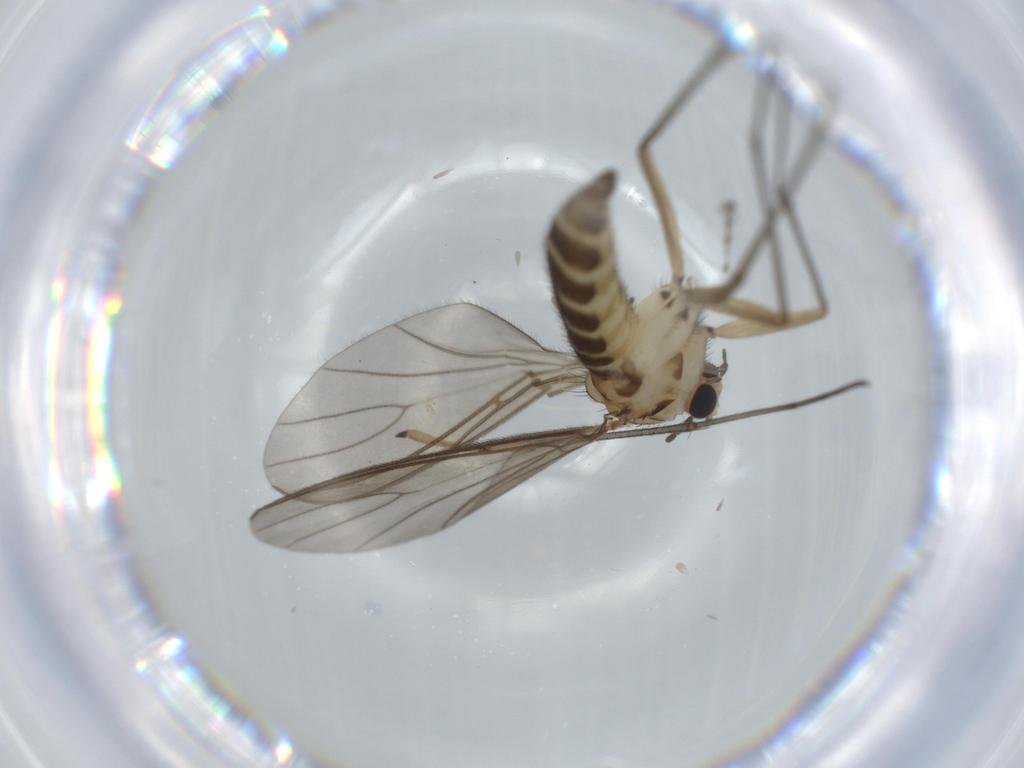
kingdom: Animalia
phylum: Arthropoda
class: Insecta
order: Diptera
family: Sciaridae
